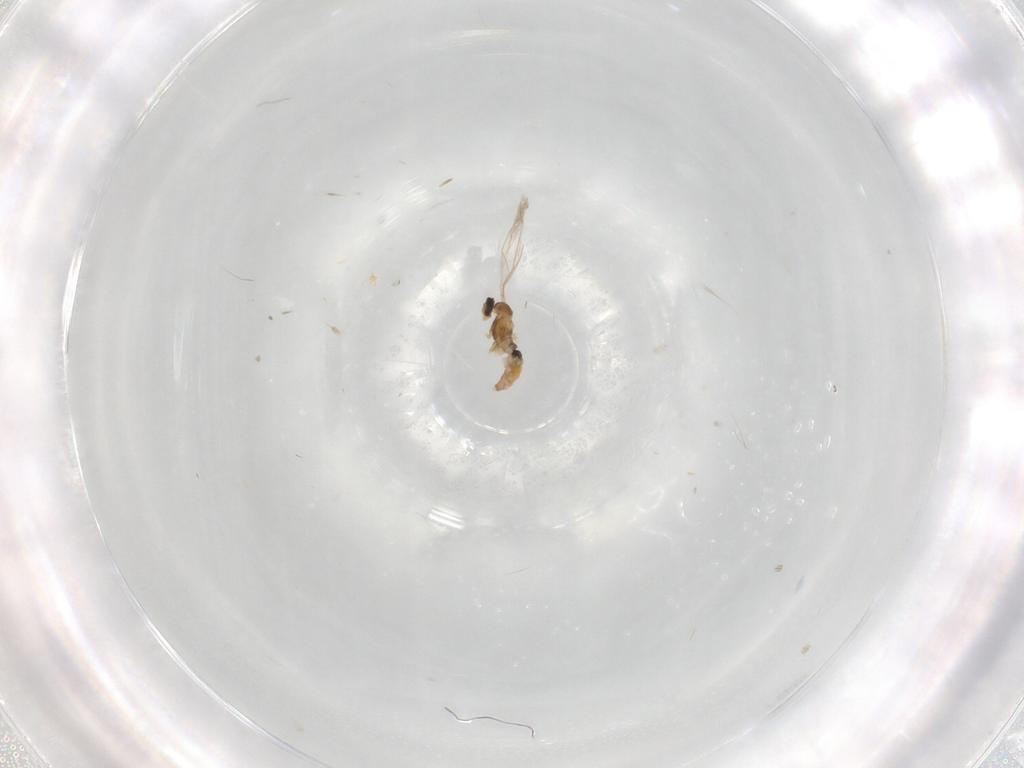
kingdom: Animalia
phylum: Arthropoda
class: Insecta
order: Diptera
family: Glossinidae
